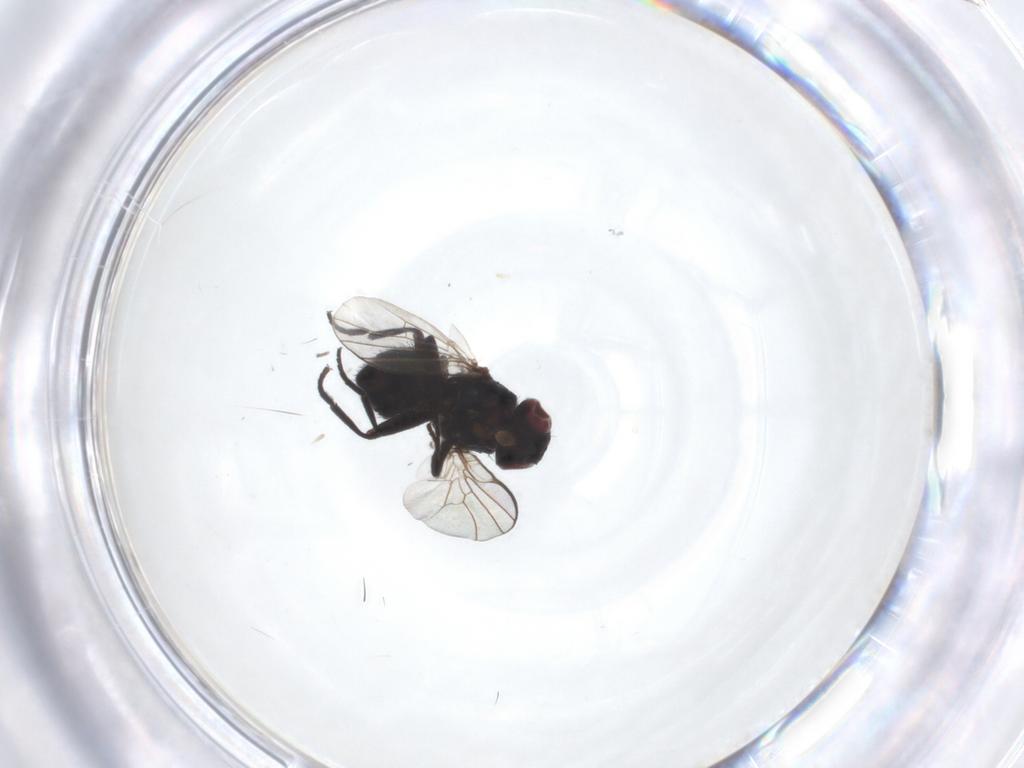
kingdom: Animalia
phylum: Arthropoda
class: Insecta
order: Diptera
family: Agromyzidae
